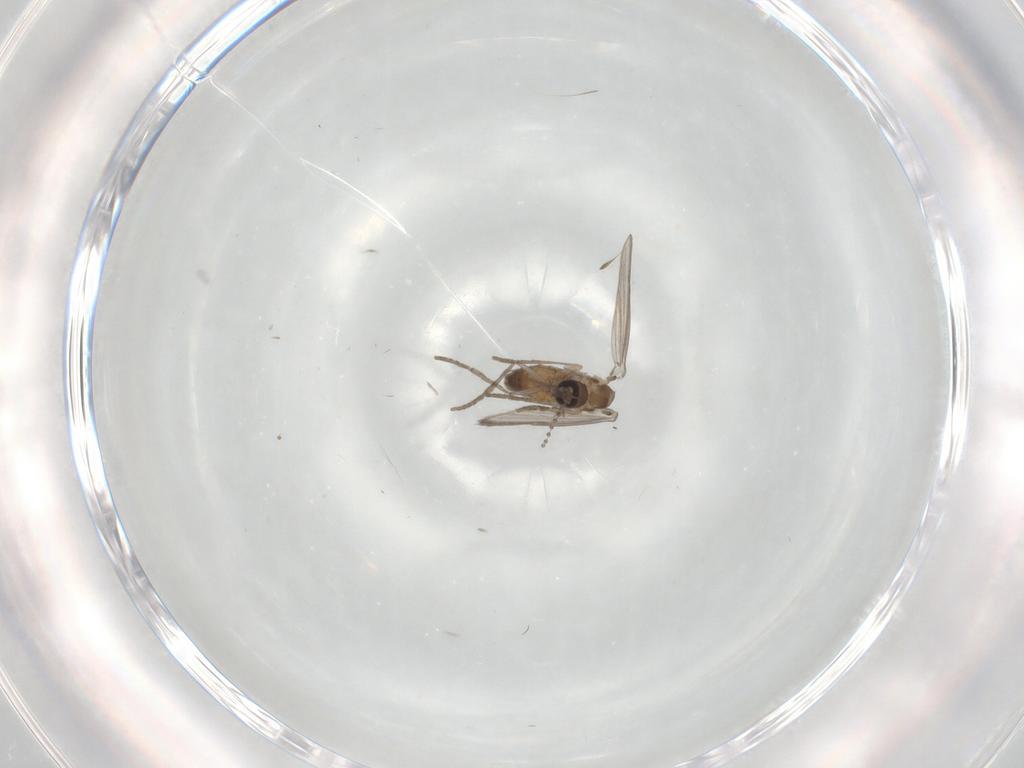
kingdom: Animalia
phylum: Arthropoda
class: Insecta
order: Diptera
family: Psychodidae
